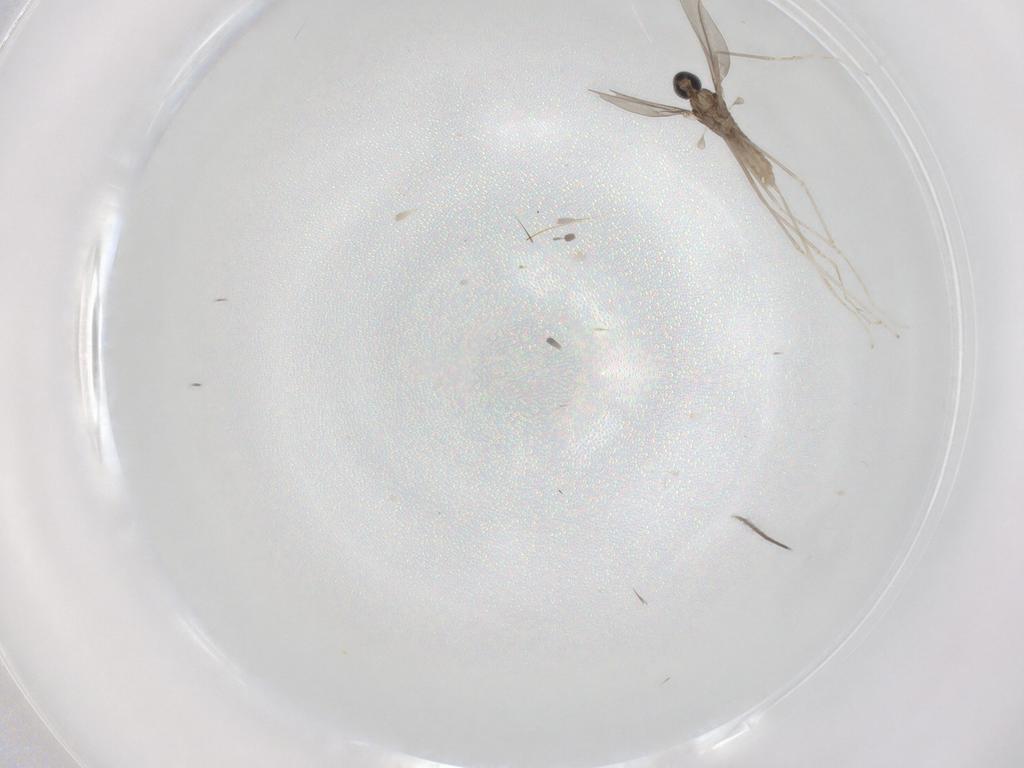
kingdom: Animalia
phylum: Arthropoda
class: Insecta
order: Diptera
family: Cecidomyiidae
